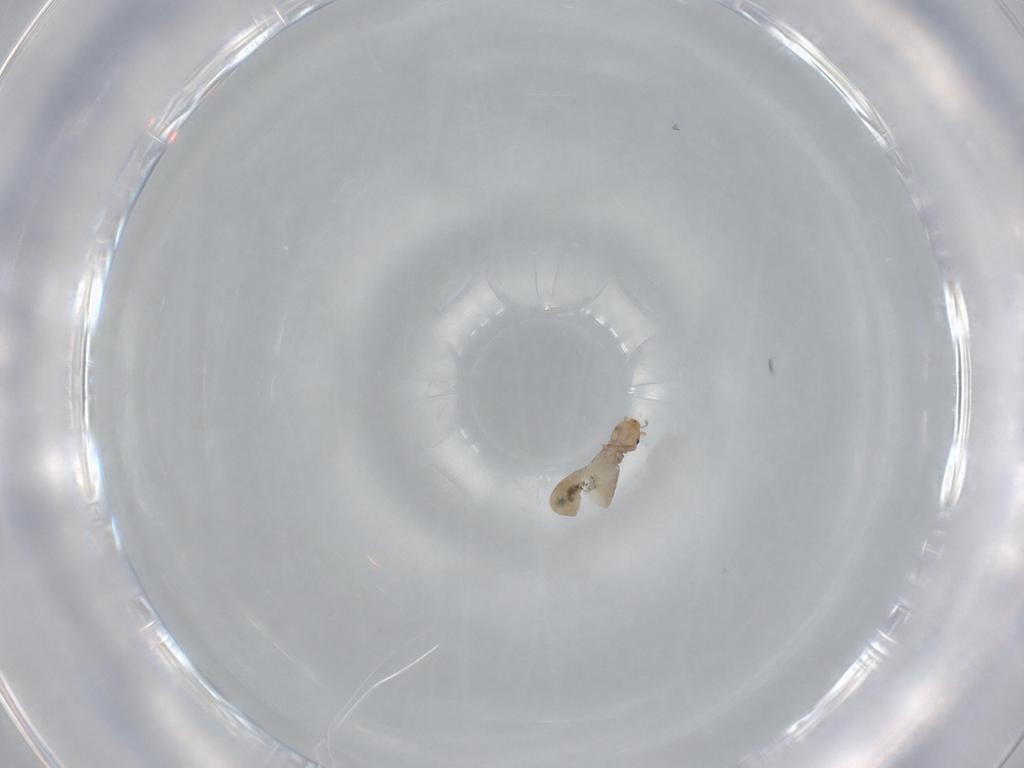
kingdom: Animalia
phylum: Arthropoda
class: Insecta
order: Psocodea
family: Liposcelididae
